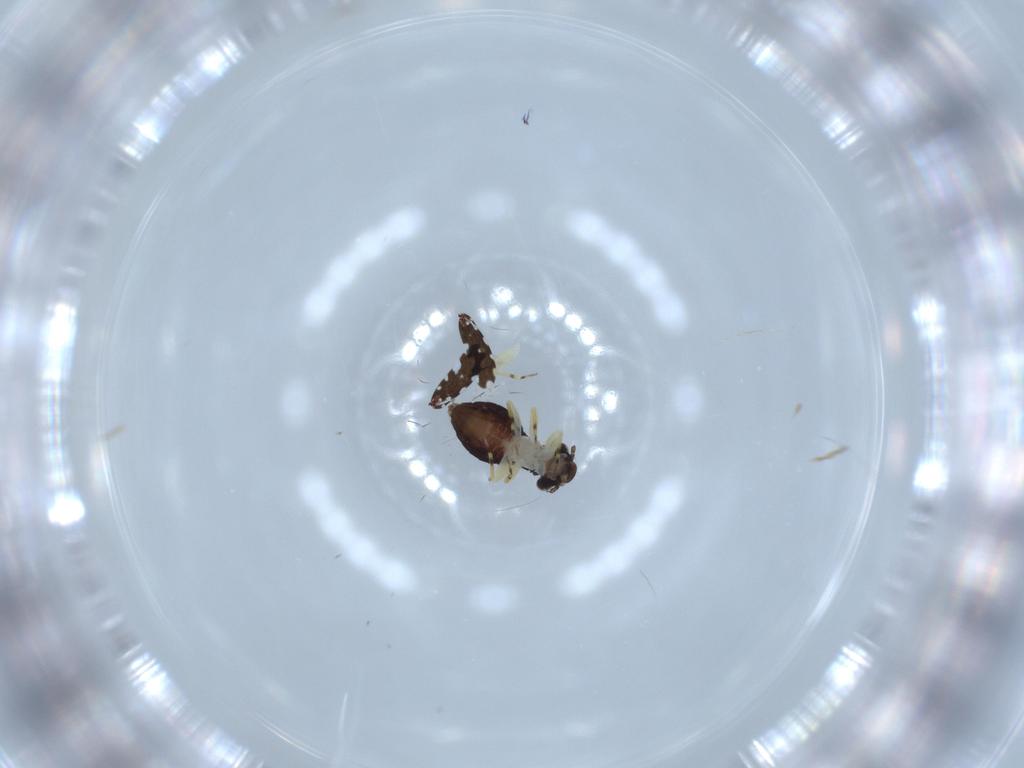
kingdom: Animalia
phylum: Arthropoda
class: Insecta
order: Psocodea
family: Psoquillidae
